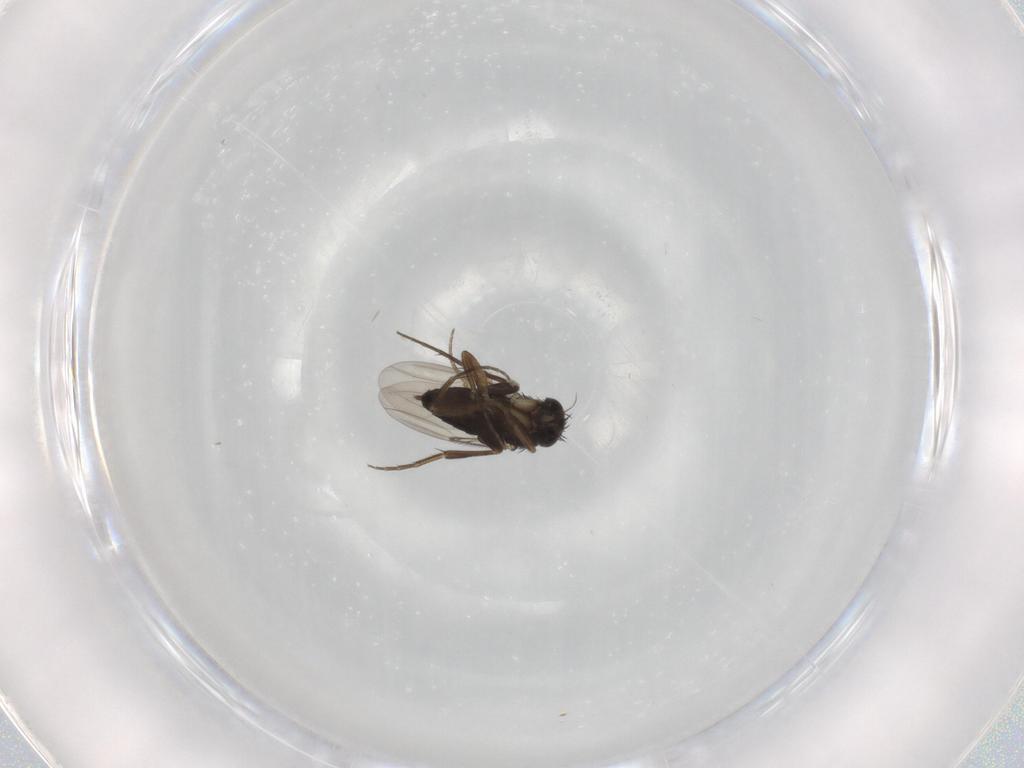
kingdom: Animalia
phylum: Arthropoda
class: Insecta
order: Diptera
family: Phoridae
